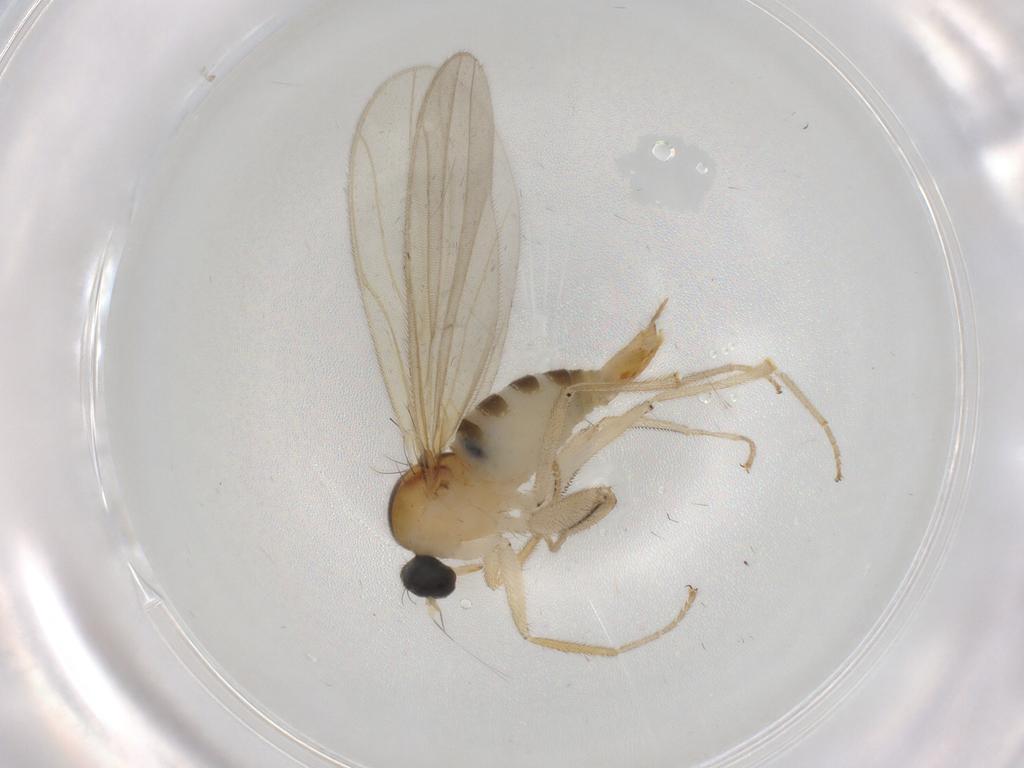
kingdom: Animalia
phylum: Arthropoda
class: Insecta
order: Diptera
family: Hybotidae
